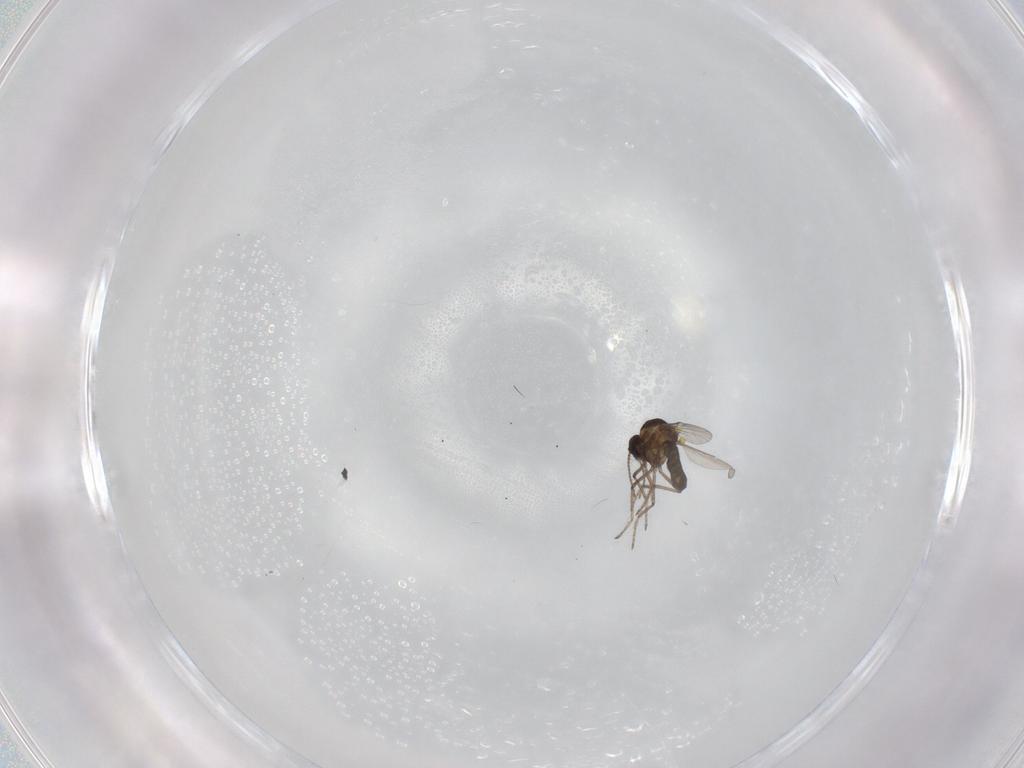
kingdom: Animalia
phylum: Arthropoda
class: Insecta
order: Diptera
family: Ceratopogonidae
